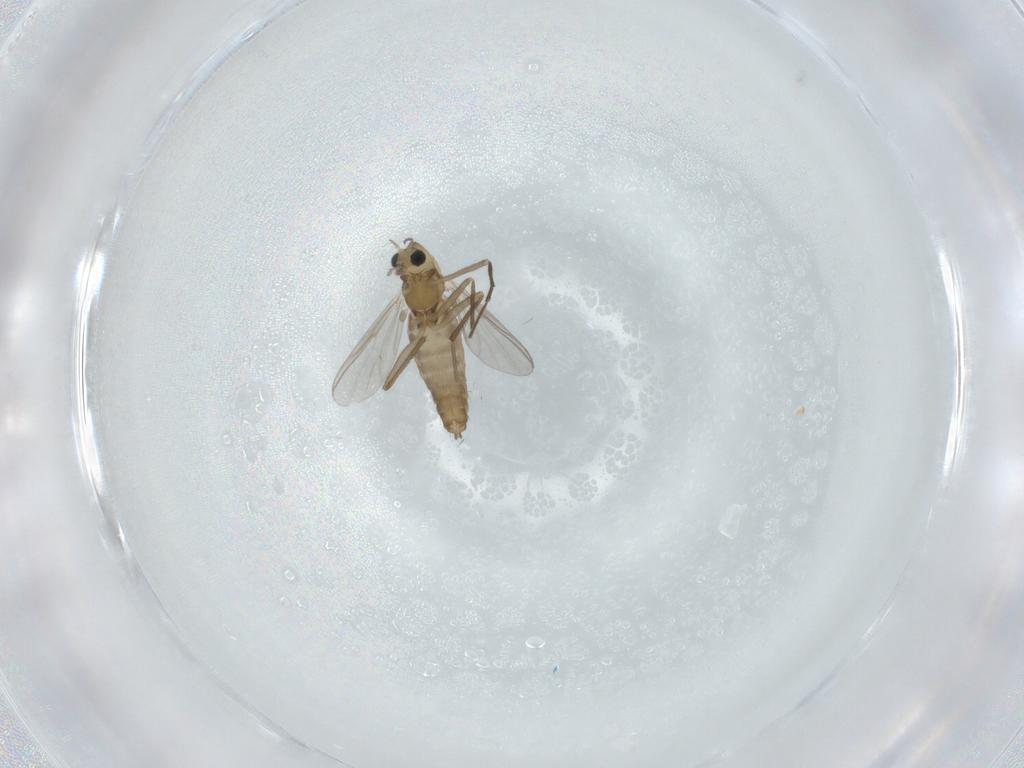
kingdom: Animalia
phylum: Arthropoda
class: Insecta
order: Diptera
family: Chironomidae
